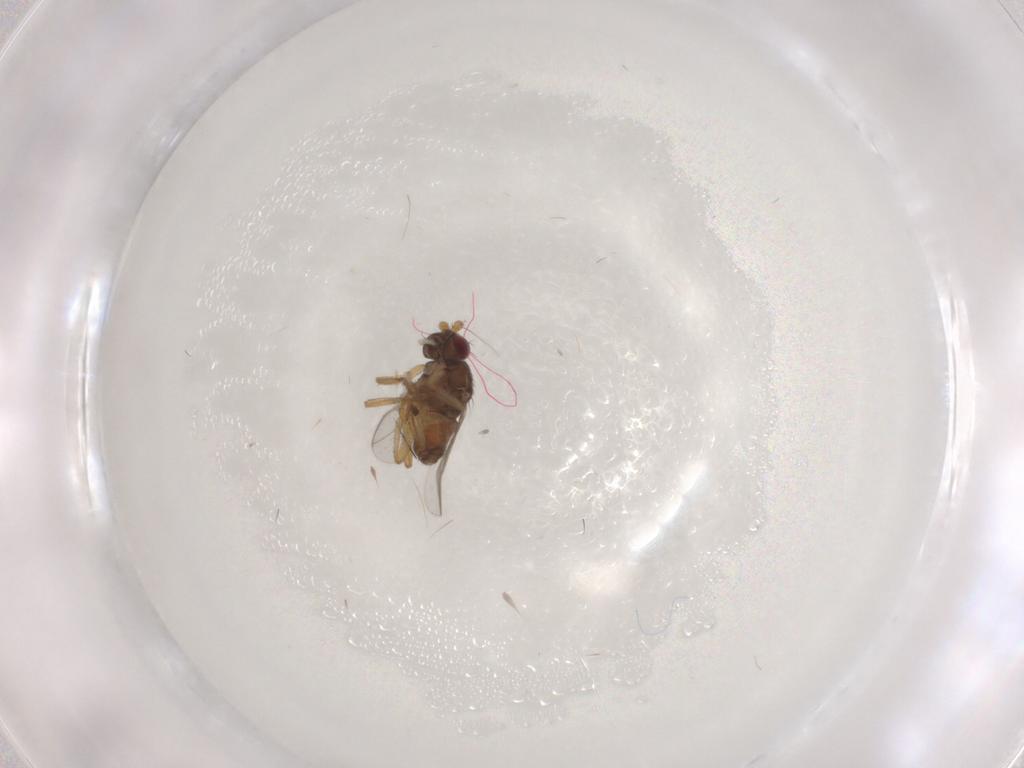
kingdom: Animalia
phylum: Arthropoda
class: Insecta
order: Diptera
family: Sphaeroceridae
